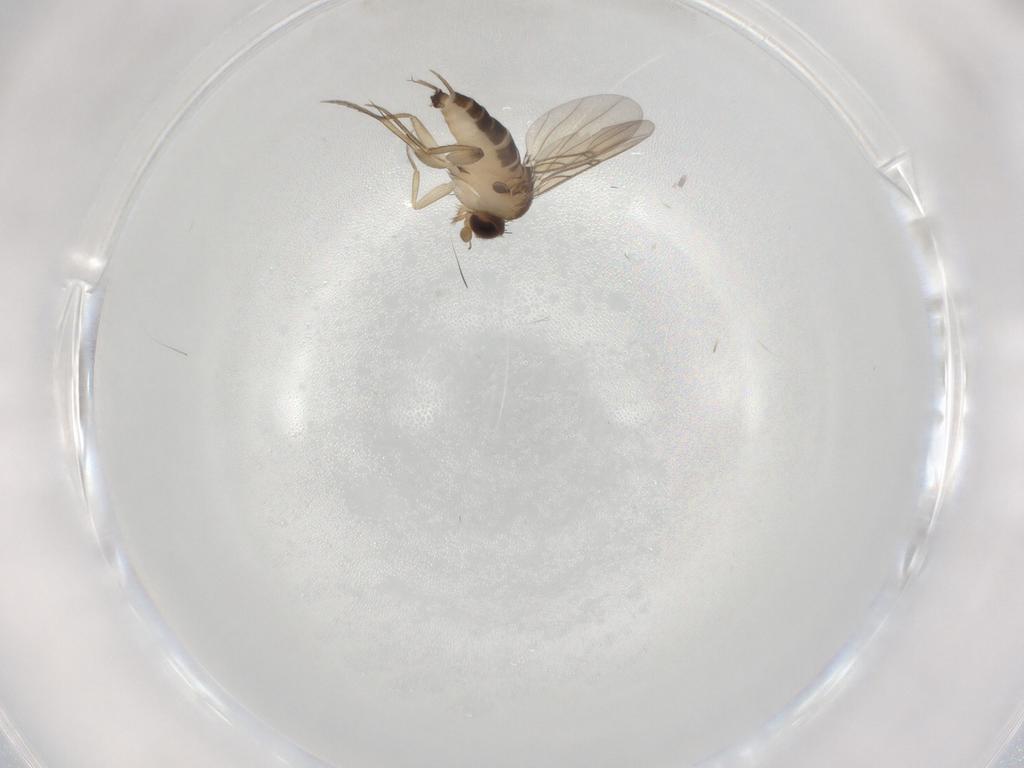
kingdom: Animalia
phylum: Arthropoda
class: Insecta
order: Diptera
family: Phoridae
